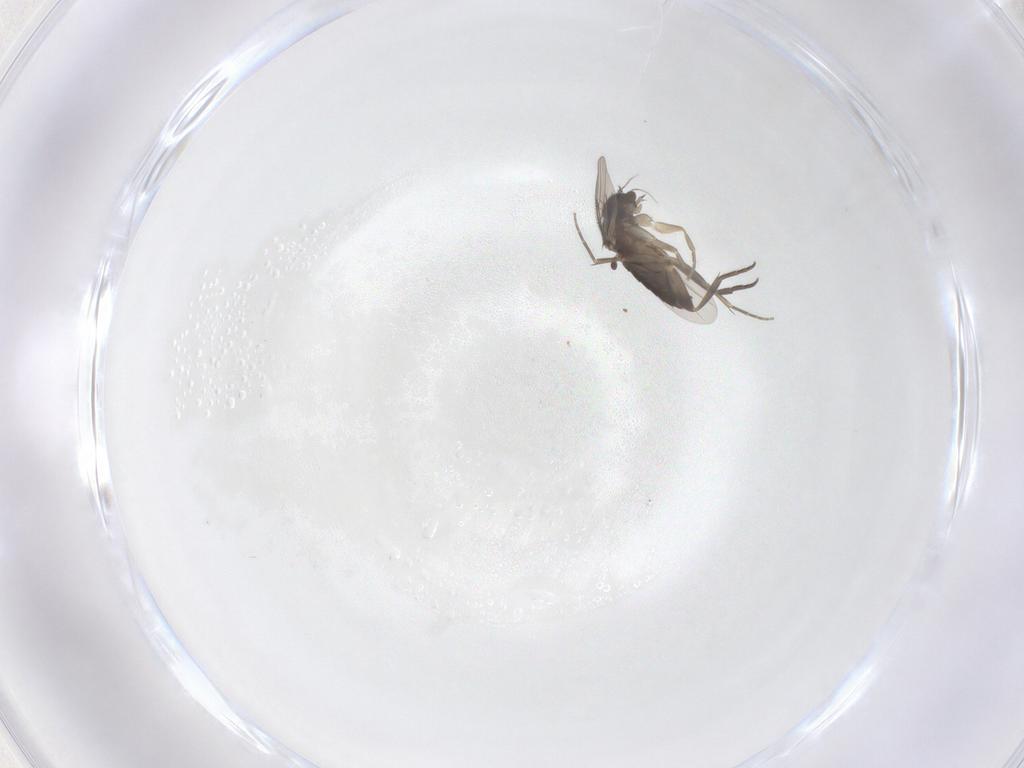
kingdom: Animalia
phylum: Arthropoda
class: Insecta
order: Diptera
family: Phoridae
